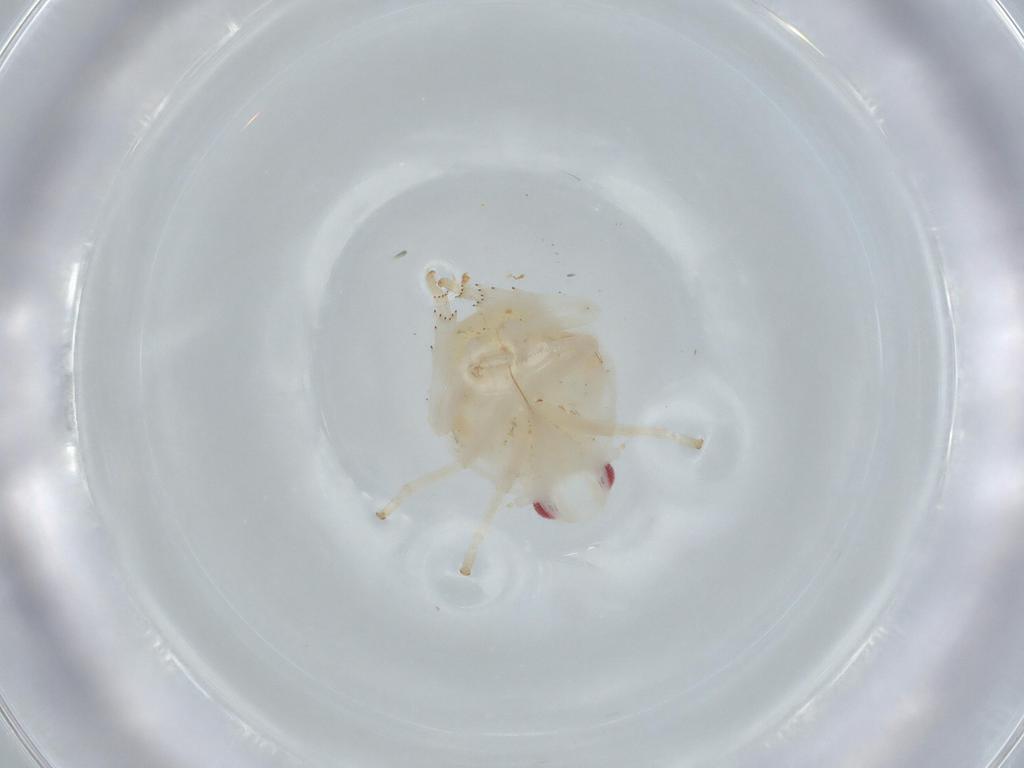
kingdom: Animalia
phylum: Arthropoda
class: Insecta
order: Hemiptera
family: Flatidae
